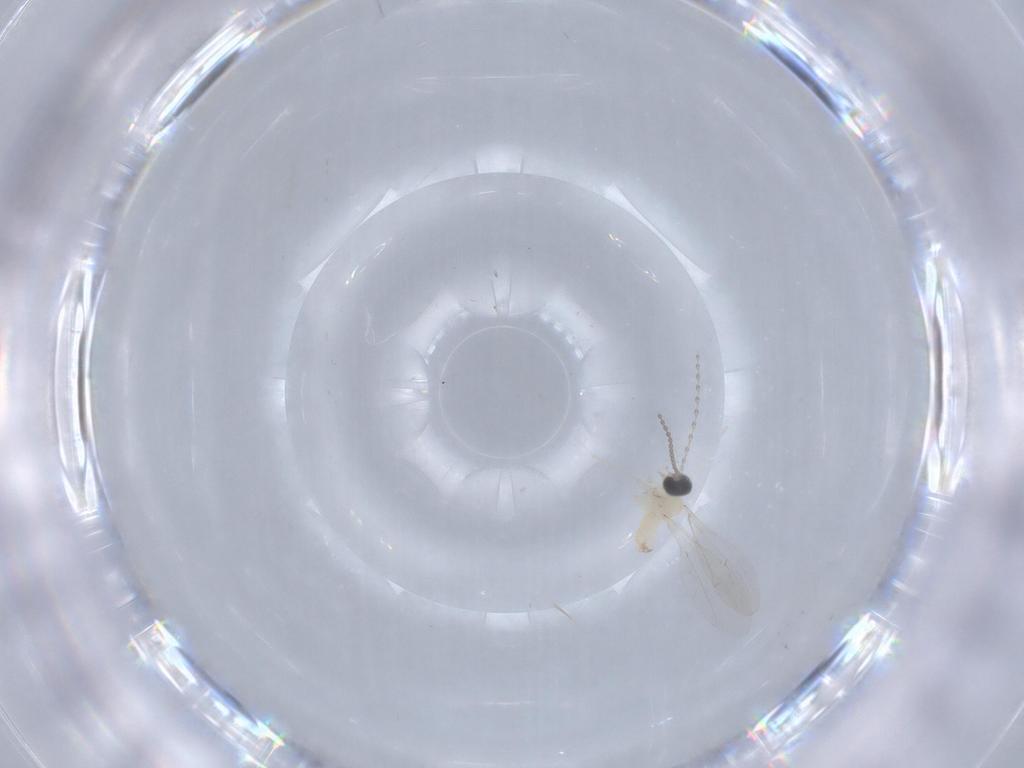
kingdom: Animalia
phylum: Arthropoda
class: Insecta
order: Diptera
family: Cecidomyiidae
